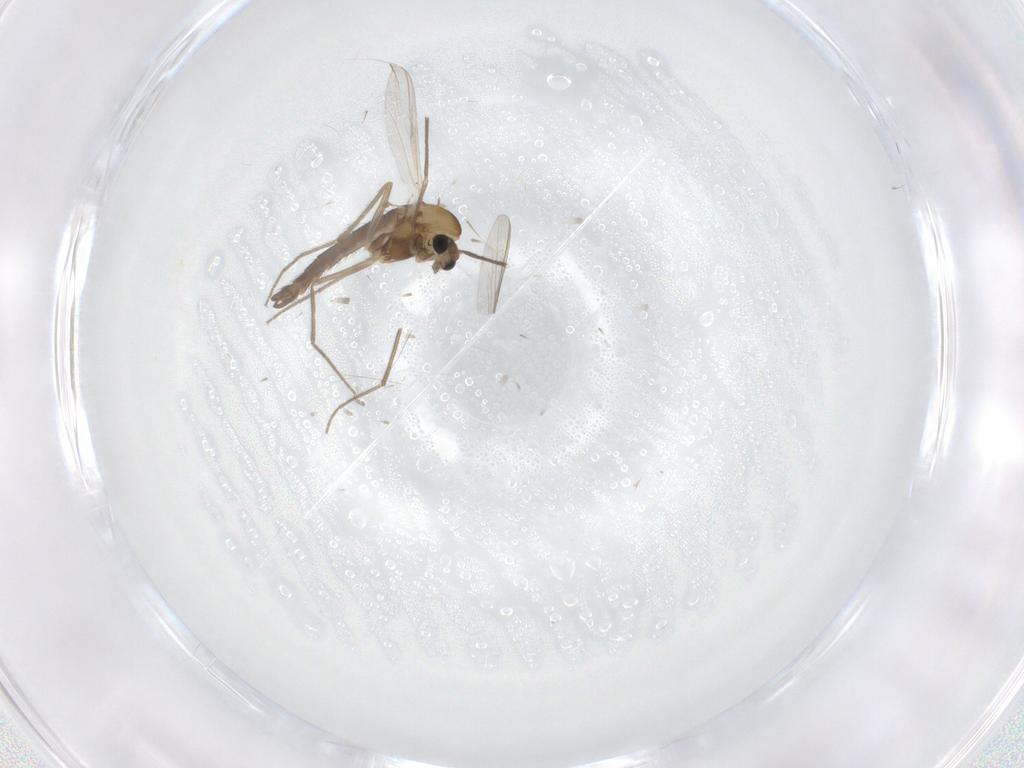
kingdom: Animalia
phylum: Arthropoda
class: Insecta
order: Diptera
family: Chironomidae
